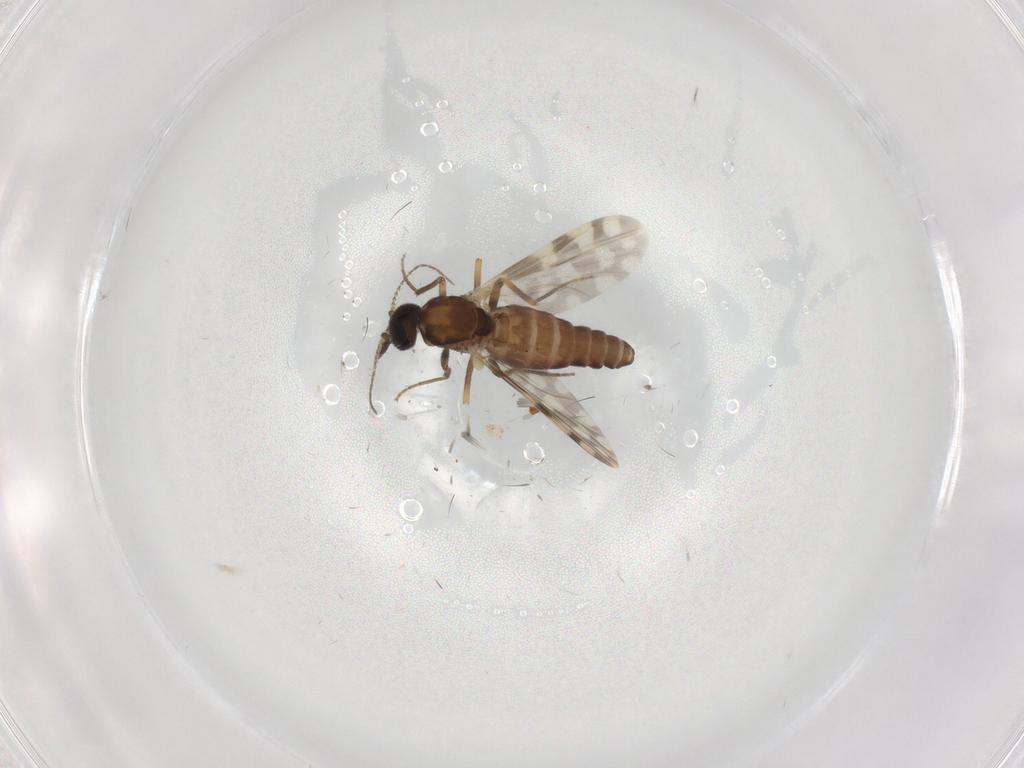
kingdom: Animalia
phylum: Arthropoda
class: Insecta
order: Diptera
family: Ceratopogonidae
